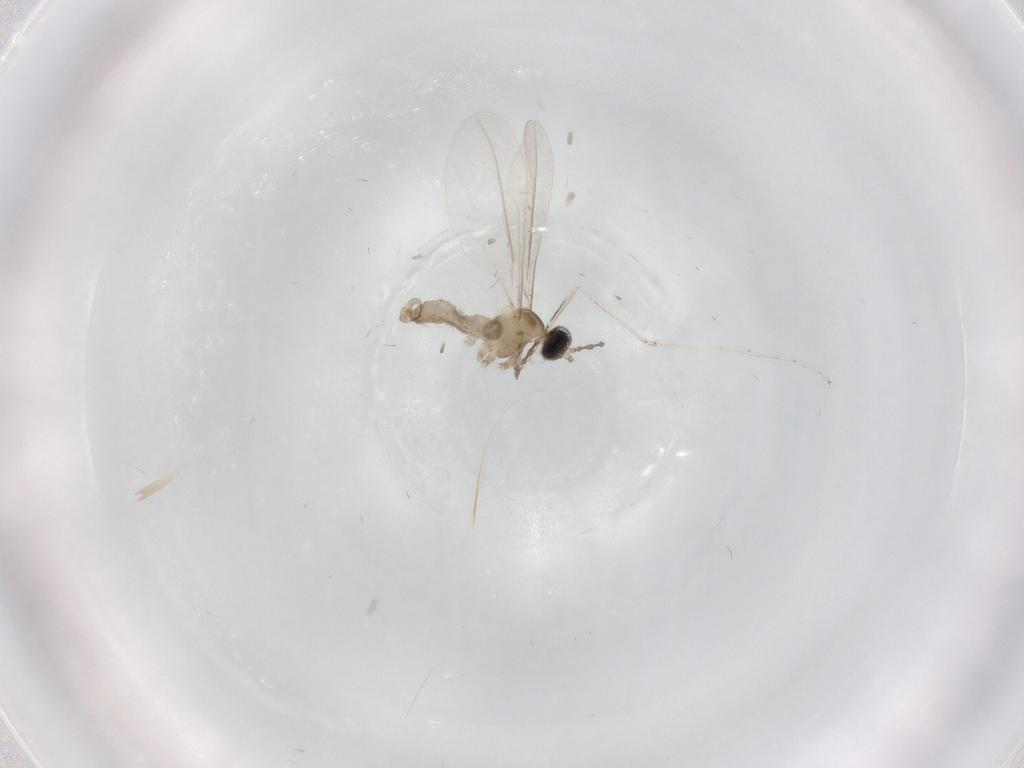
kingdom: Animalia
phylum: Arthropoda
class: Insecta
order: Diptera
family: Cecidomyiidae
